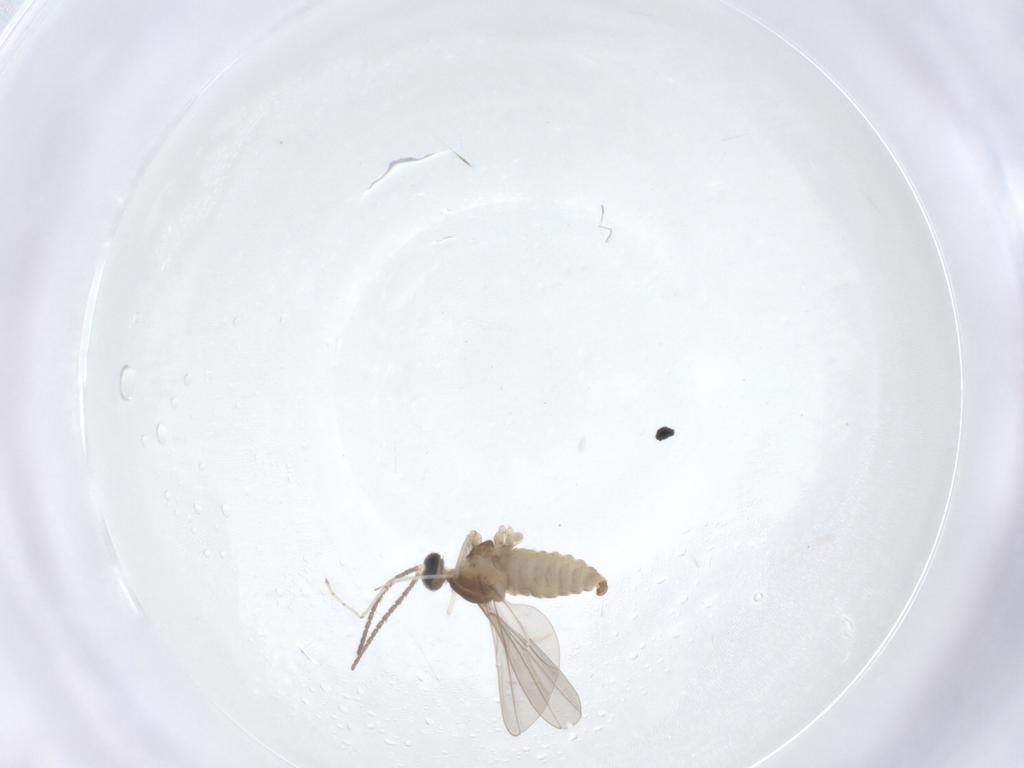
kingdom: Animalia
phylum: Arthropoda
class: Insecta
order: Diptera
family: Cecidomyiidae
